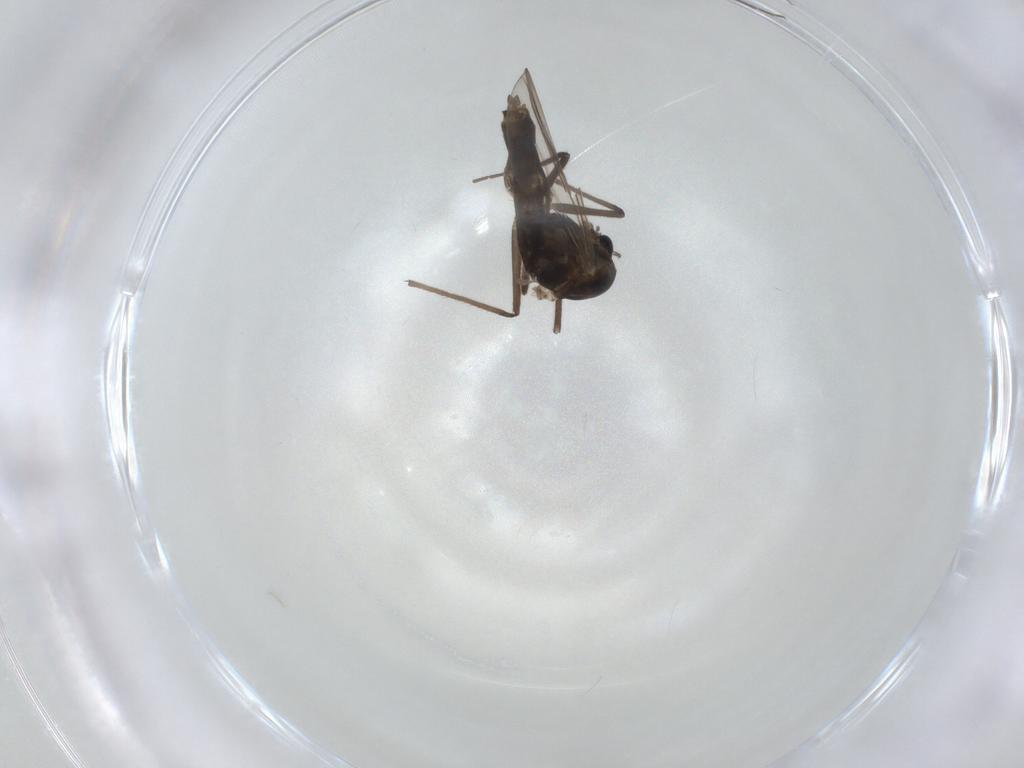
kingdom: Animalia
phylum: Arthropoda
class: Insecta
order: Diptera
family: Chironomidae
